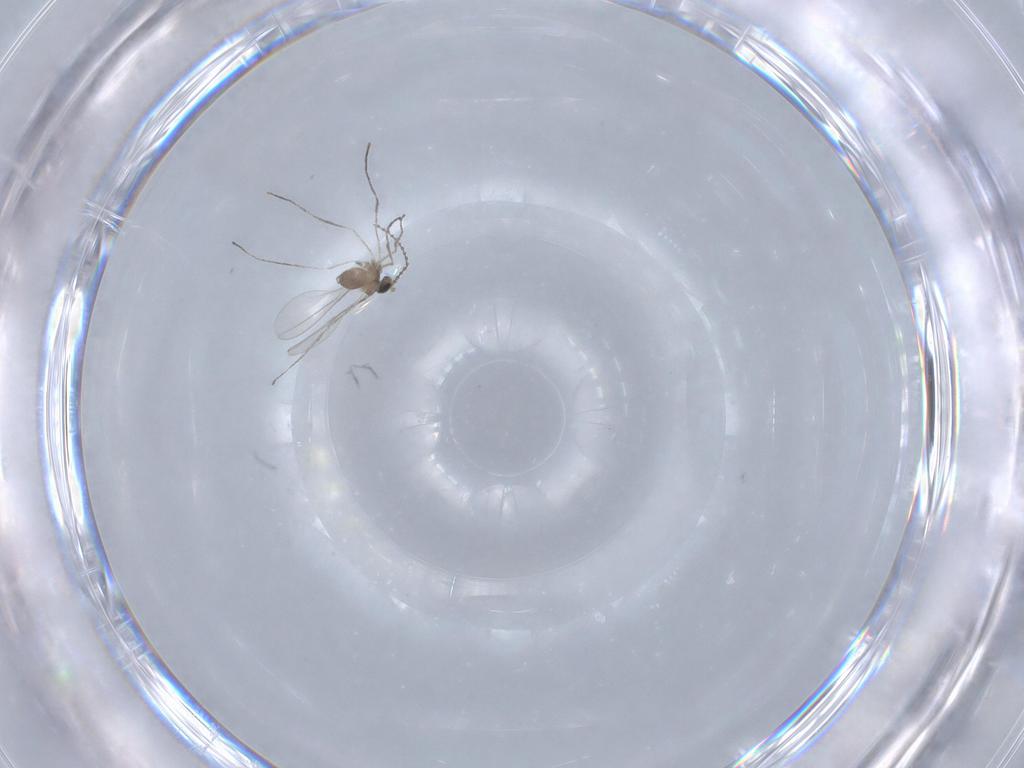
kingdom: Animalia
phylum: Arthropoda
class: Insecta
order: Diptera
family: Cecidomyiidae
